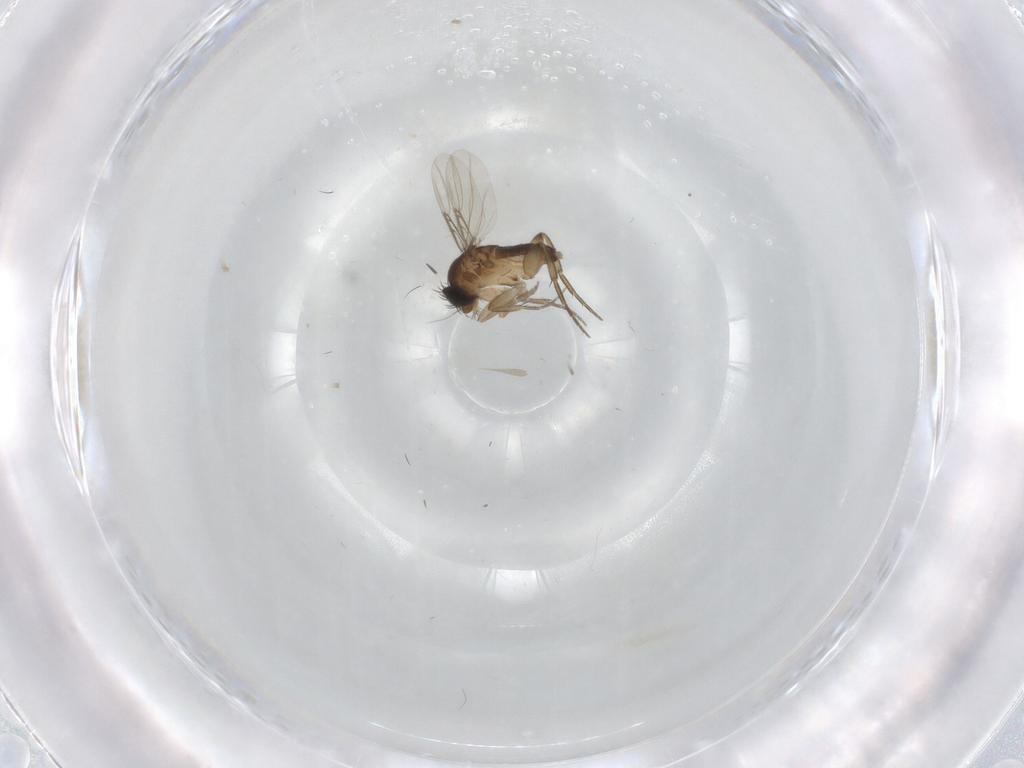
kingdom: Animalia
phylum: Arthropoda
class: Insecta
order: Diptera
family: Phoridae
